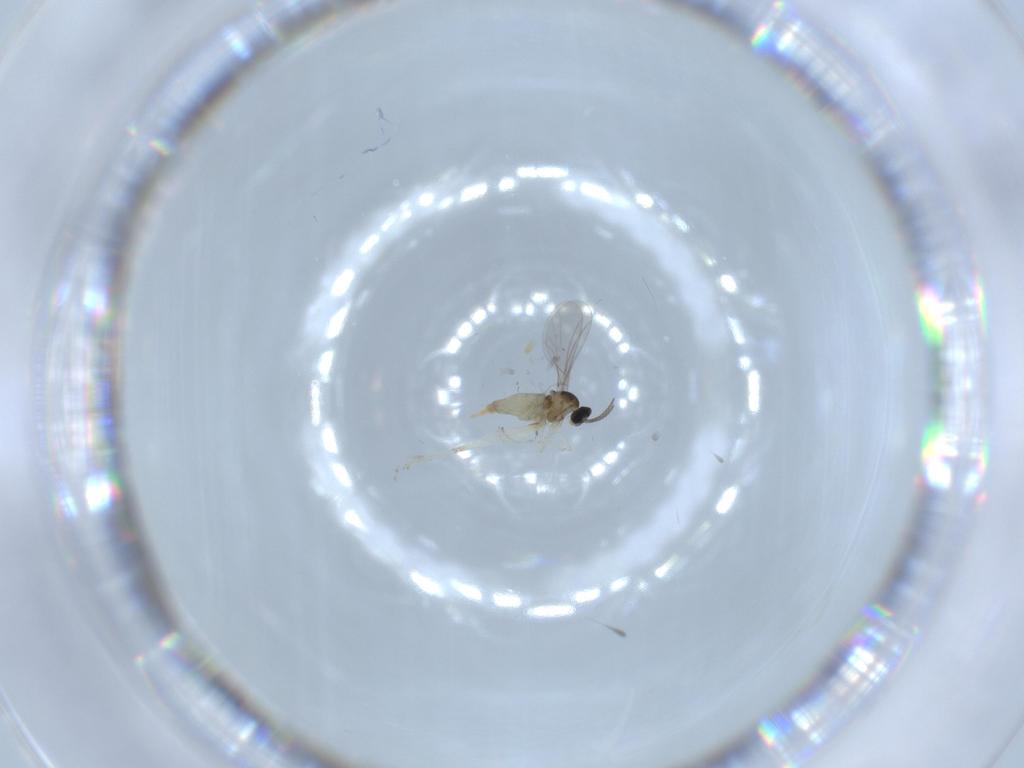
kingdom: Animalia
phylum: Arthropoda
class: Insecta
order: Diptera
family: Cecidomyiidae
